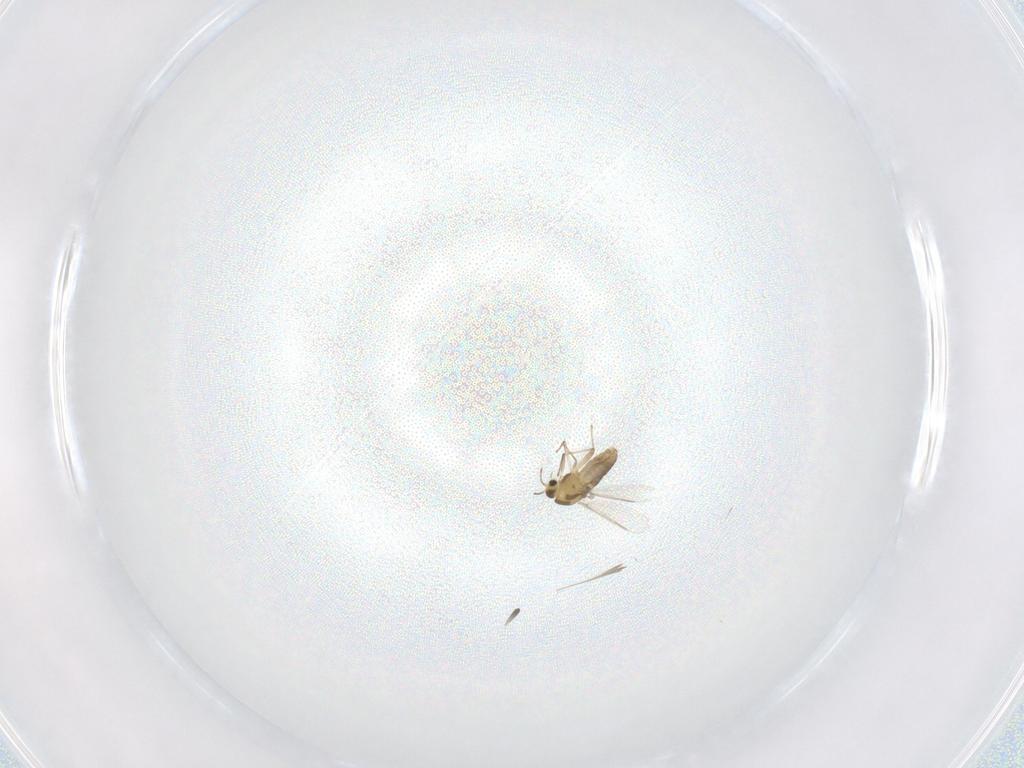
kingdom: Animalia
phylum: Arthropoda
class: Insecta
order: Diptera
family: Chironomidae
